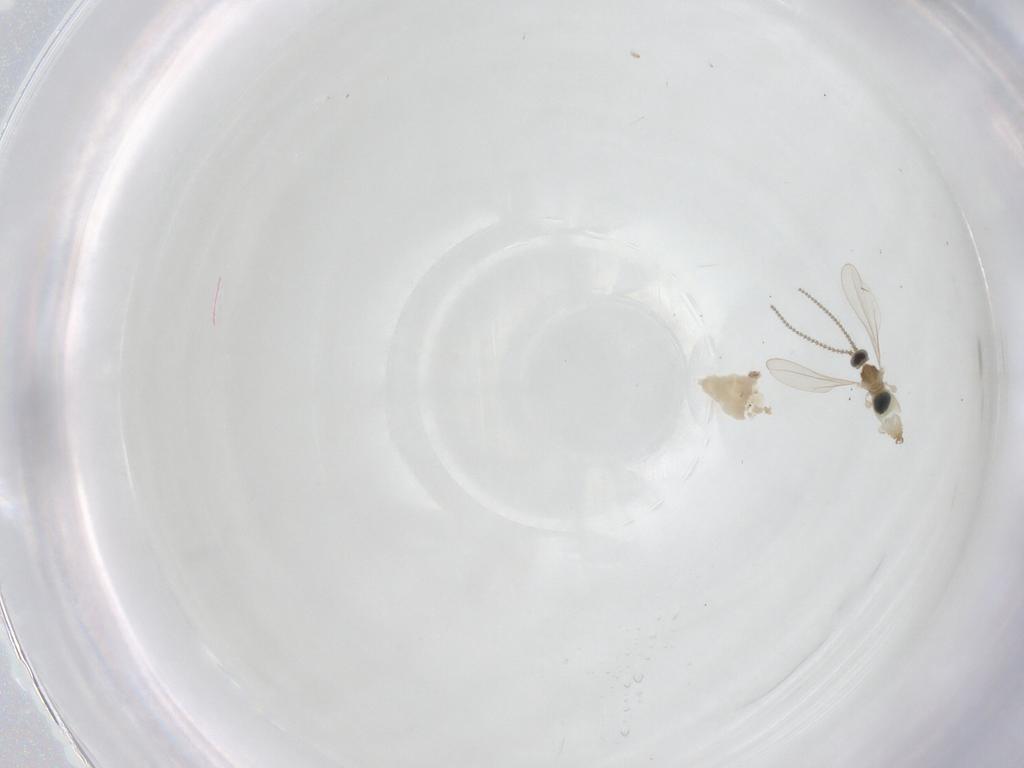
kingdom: Animalia
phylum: Arthropoda
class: Insecta
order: Diptera
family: Cecidomyiidae
